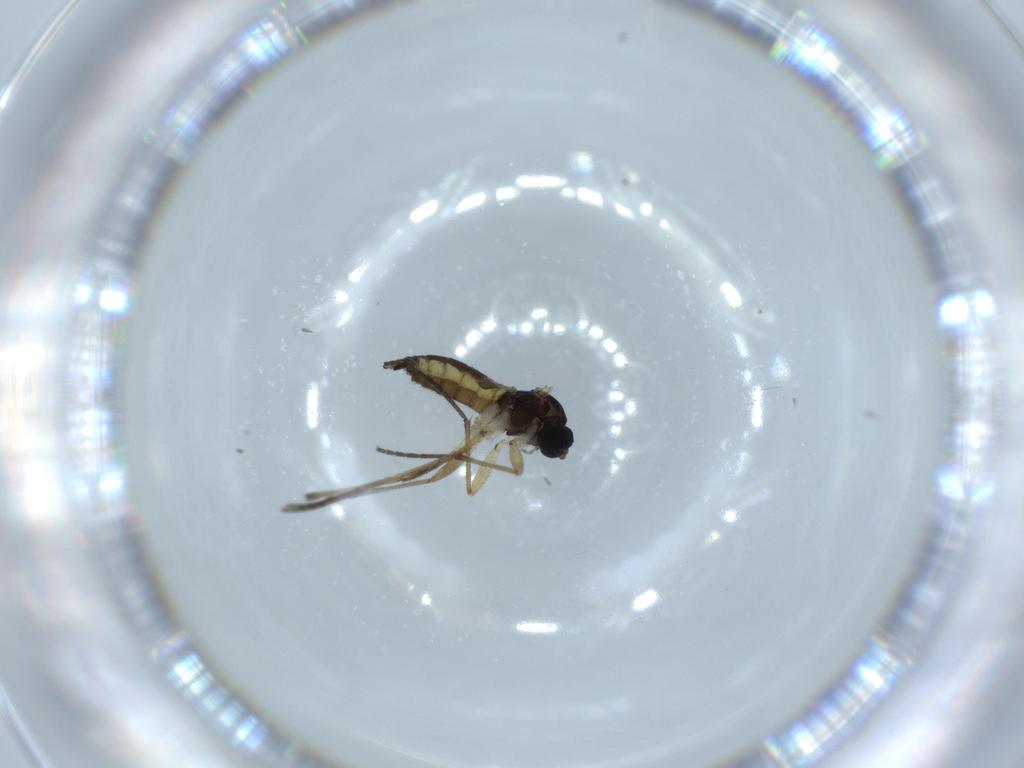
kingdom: Animalia
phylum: Arthropoda
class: Insecta
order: Diptera
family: Sciaridae
